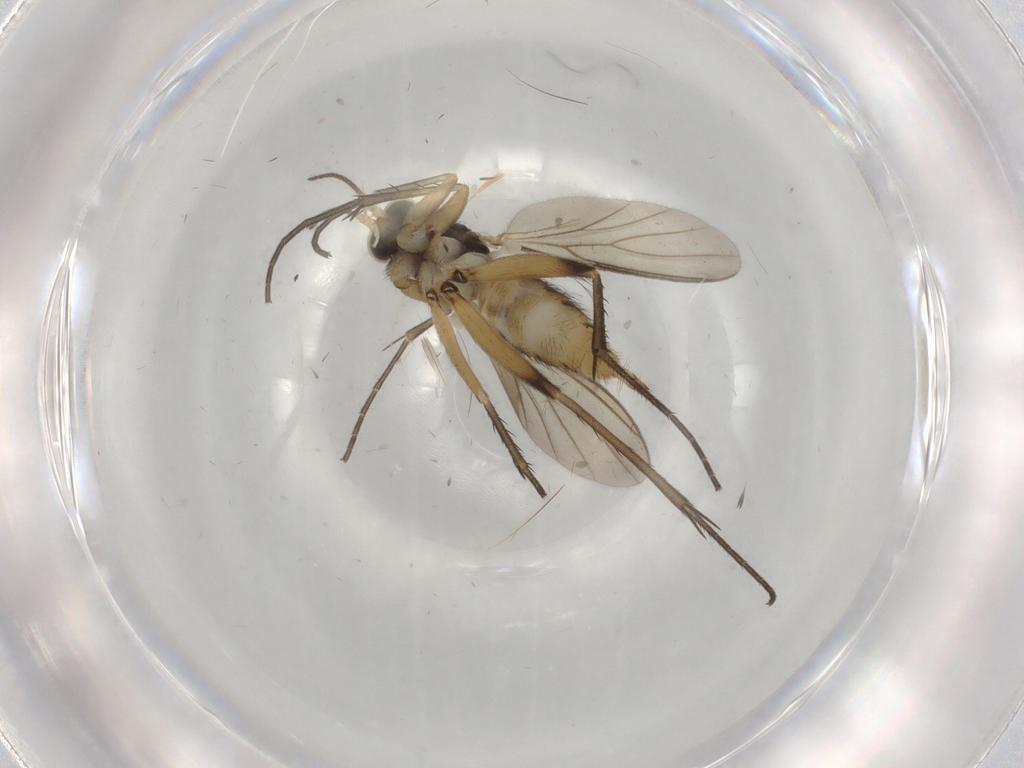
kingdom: Animalia
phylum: Arthropoda
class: Insecta
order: Diptera
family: Mycetophilidae
